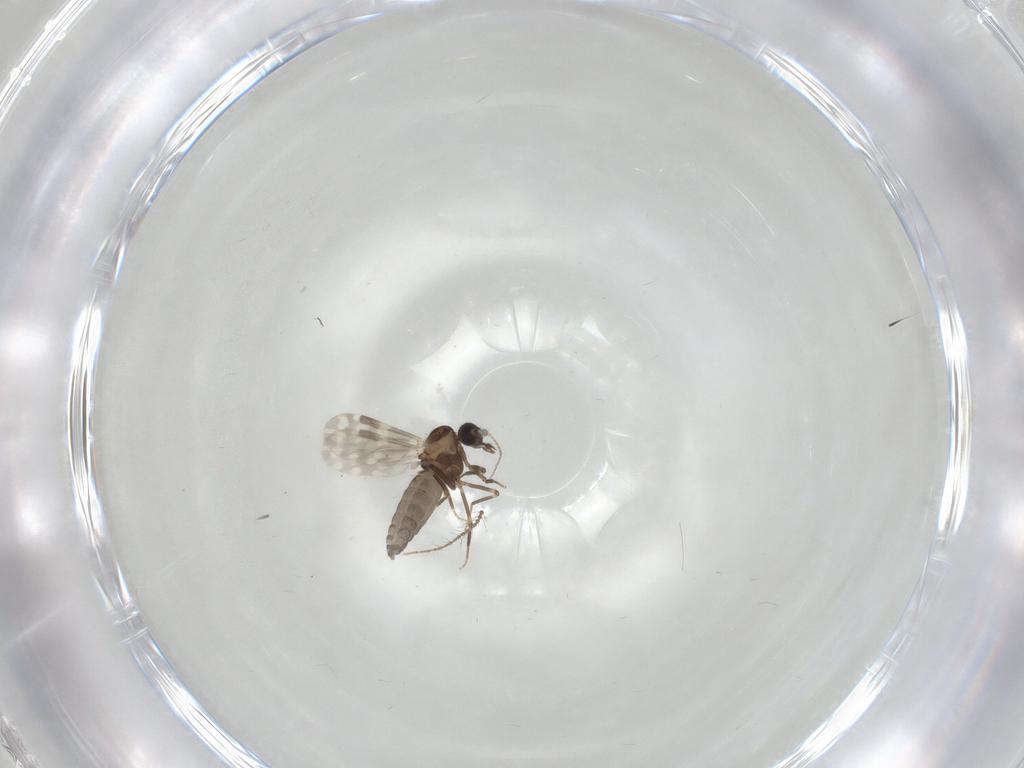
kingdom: Animalia
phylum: Arthropoda
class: Insecta
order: Diptera
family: Ceratopogonidae
